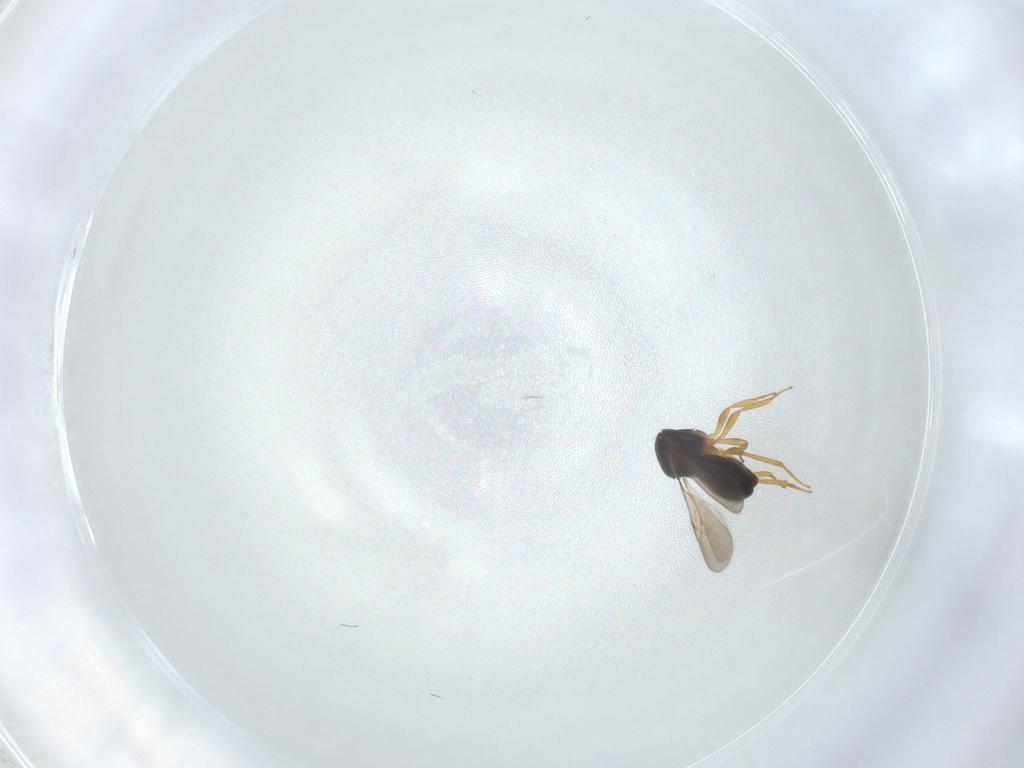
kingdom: Animalia
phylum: Arthropoda
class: Insecta
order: Hymenoptera
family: Scelionidae
